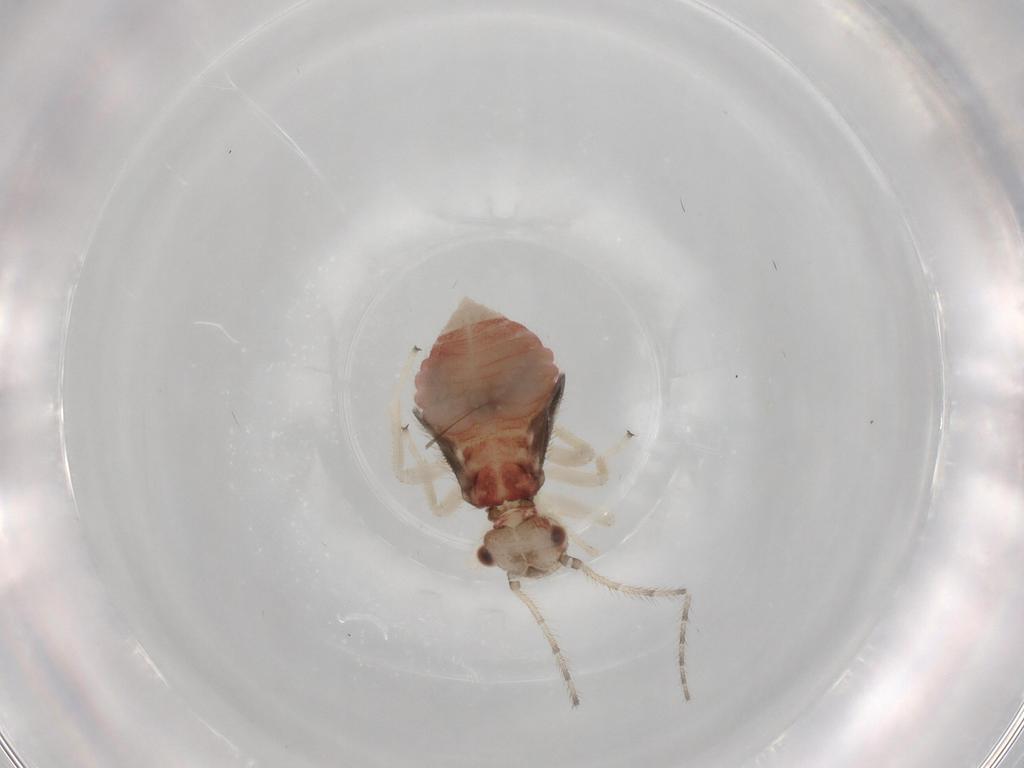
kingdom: Animalia
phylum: Arthropoda
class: Insecta
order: Psocodea
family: Amphipsocidae
